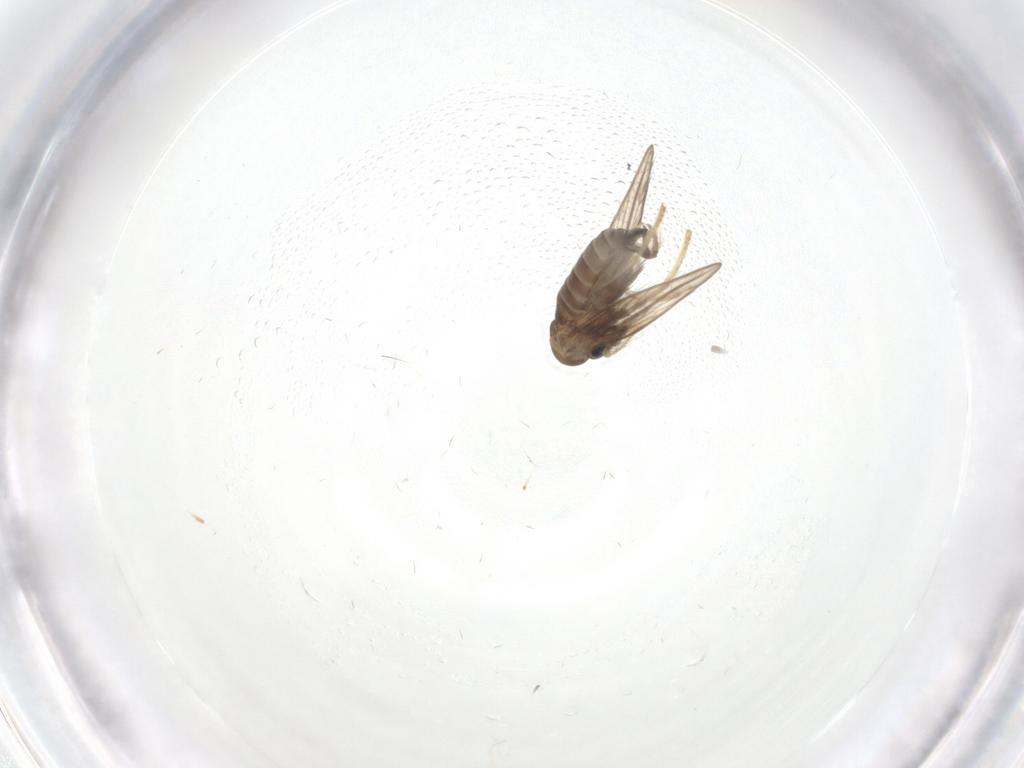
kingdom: Animalia
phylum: Arthropoda
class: Insecta
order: Diptera
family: Psychodidae
